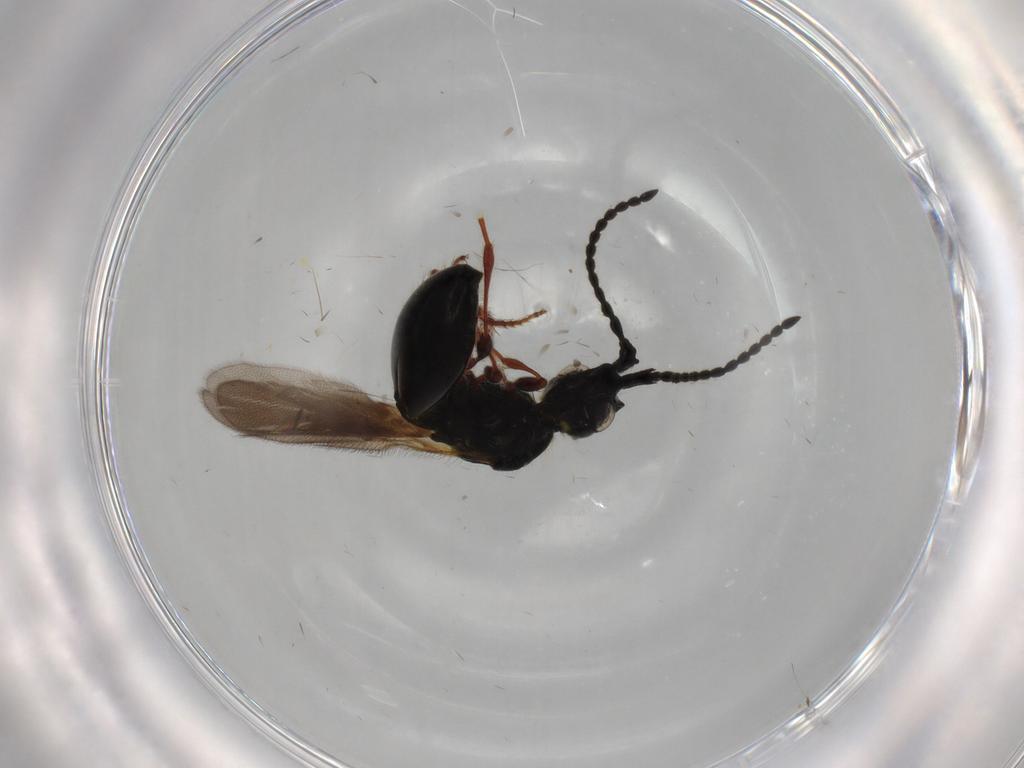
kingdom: Animalia
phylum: Arthropoda
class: Insecta
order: Hymenoptera
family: Diapriidae
